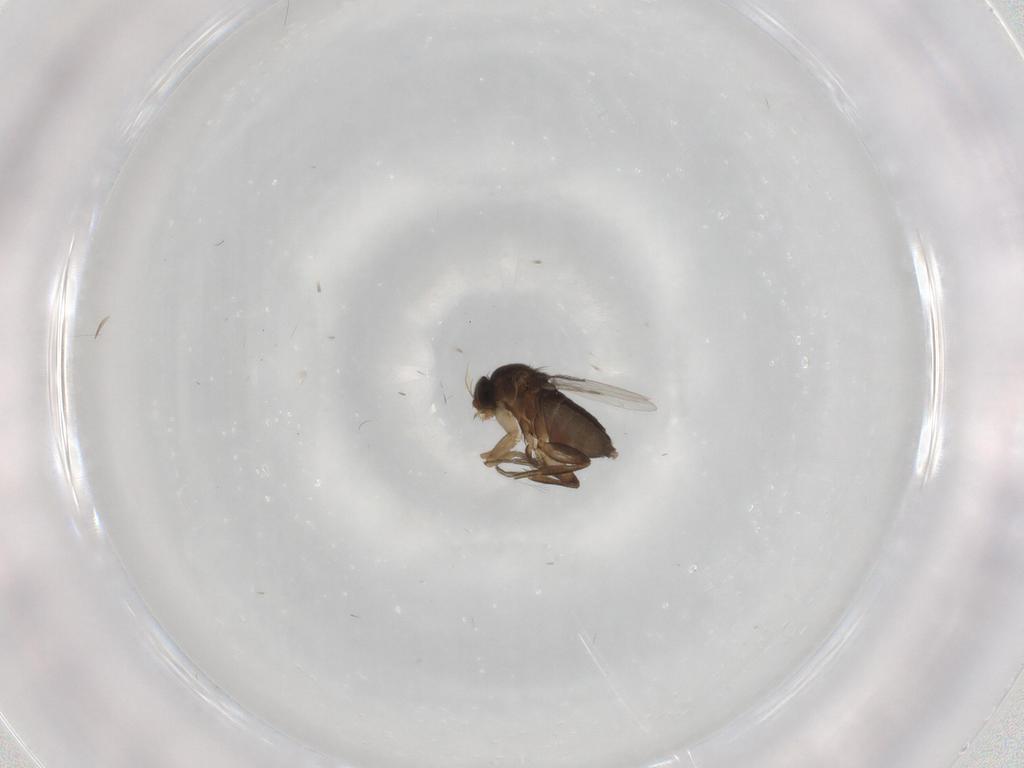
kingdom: Animalia
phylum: Arthropoda
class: Insecta
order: Diptera
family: Phoridae
